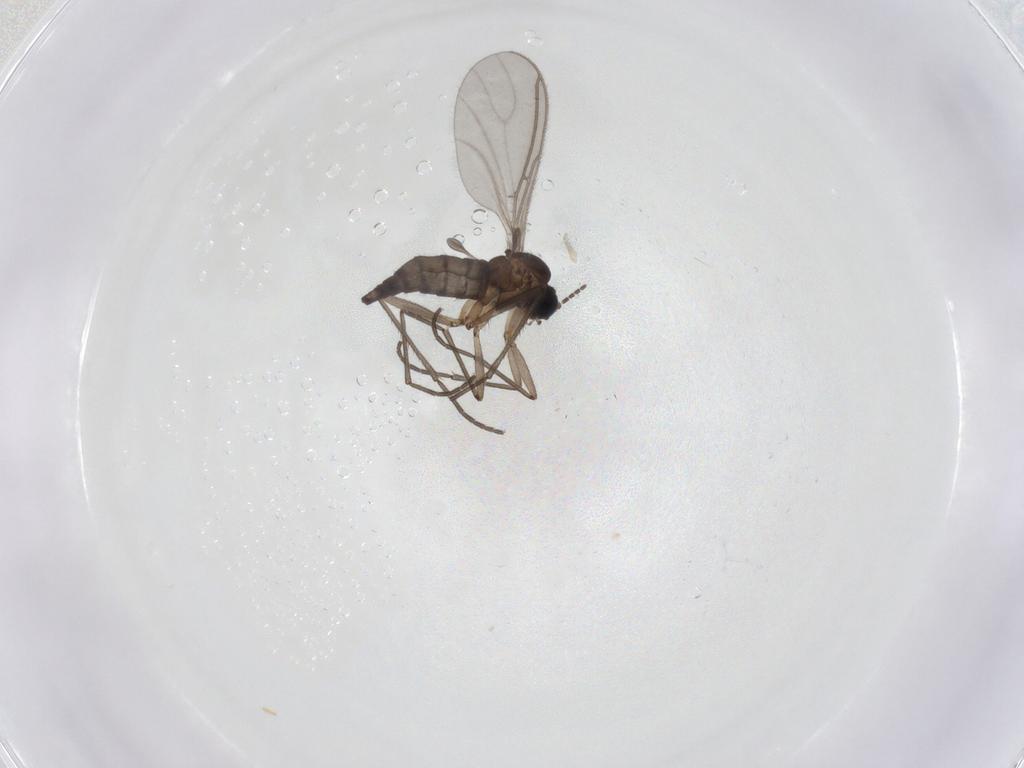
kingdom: Animalia
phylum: Arthropoda
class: Insecta
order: Diptera
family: Sciaridae
